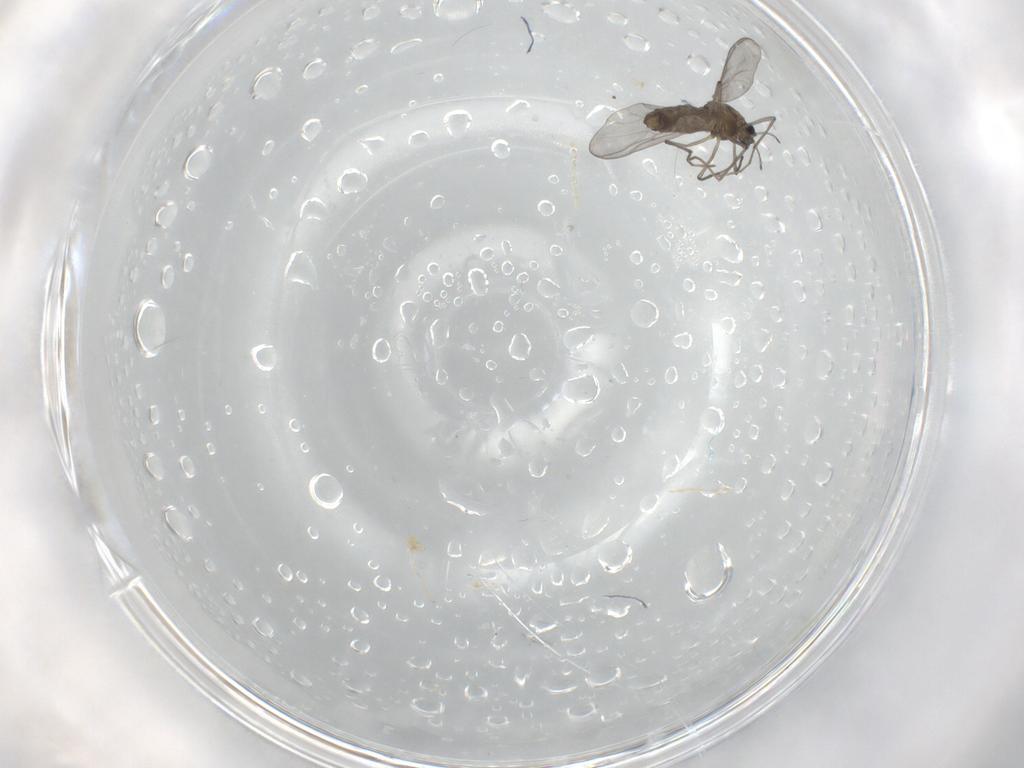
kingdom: Animalia
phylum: Arthropoda
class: Insecta
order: Diptera
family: Chironomidae
